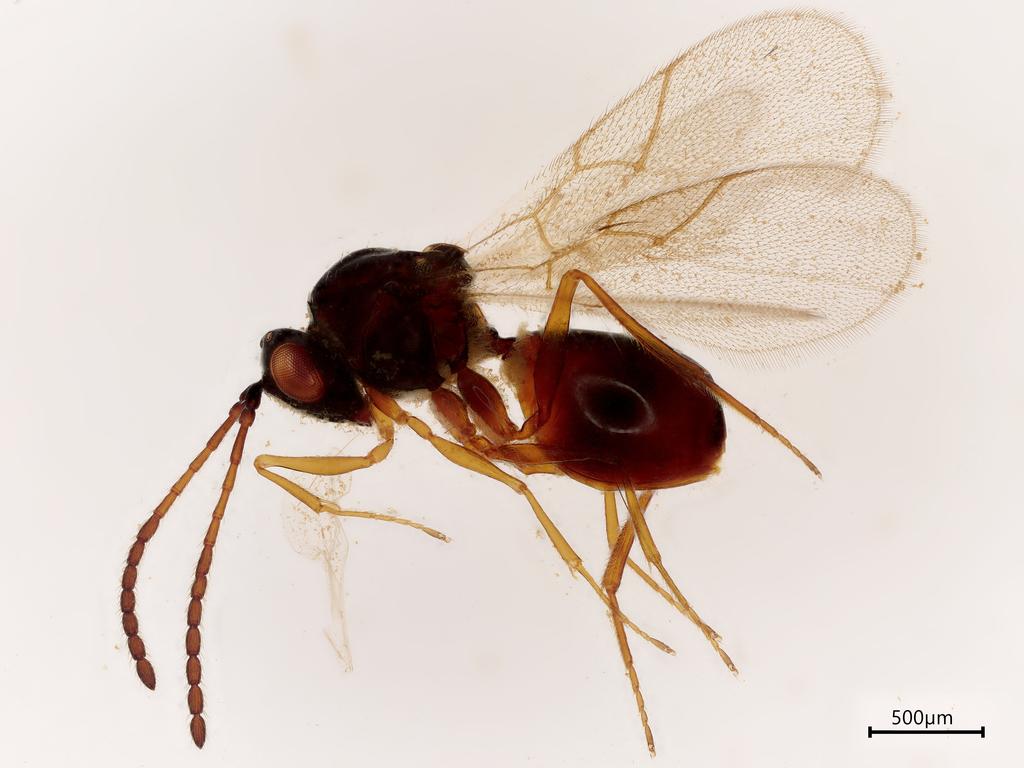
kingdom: Animalia
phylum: Arthropoda
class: Insecta
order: Hymenoptera
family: Figitidae
